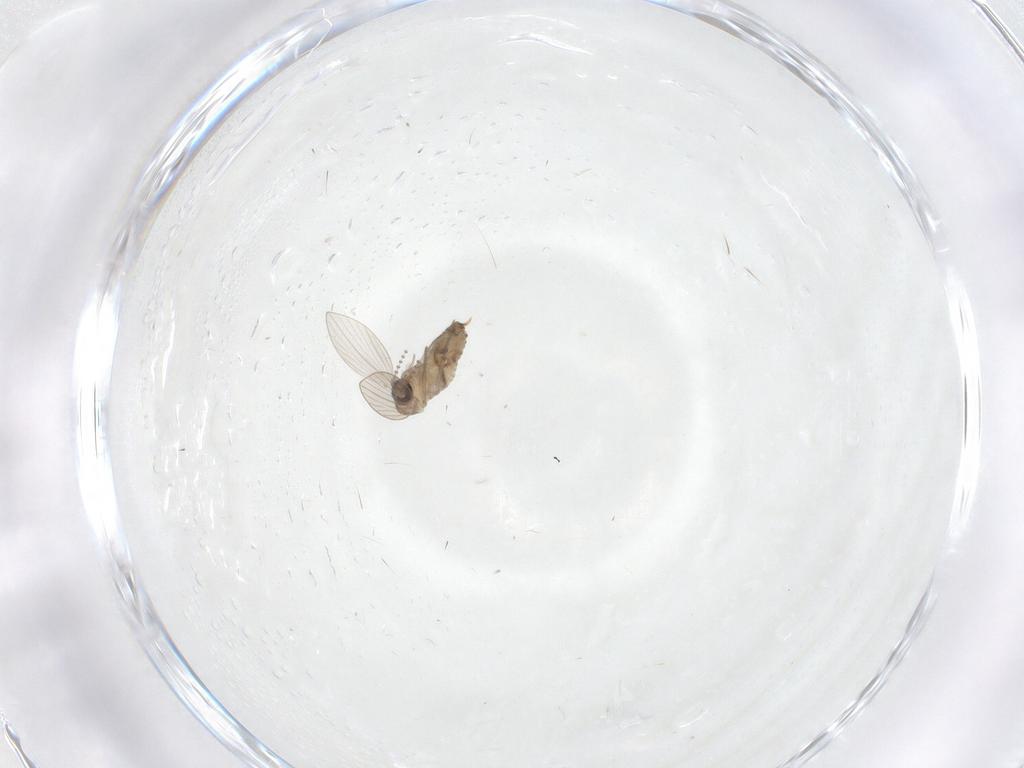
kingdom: Animalia
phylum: Arthropoda
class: Insecta
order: Diptera
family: Psychodidae
